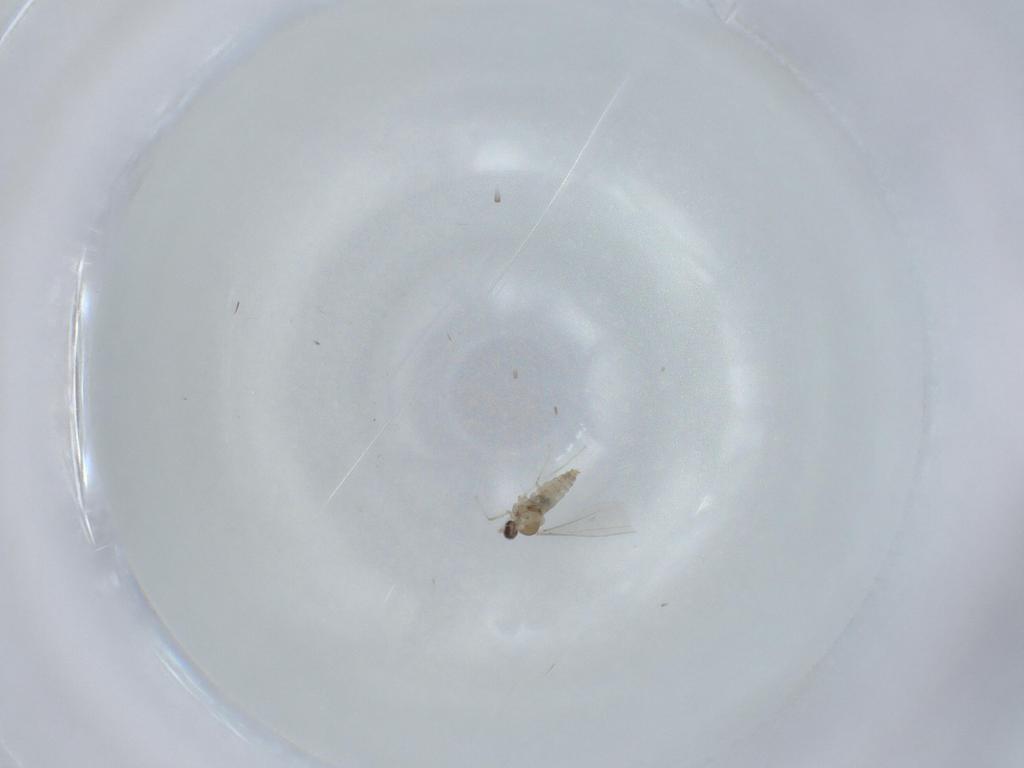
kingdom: Animalia
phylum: Arthropoda
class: Insecta
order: Diptera
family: Cecidomyiidae
